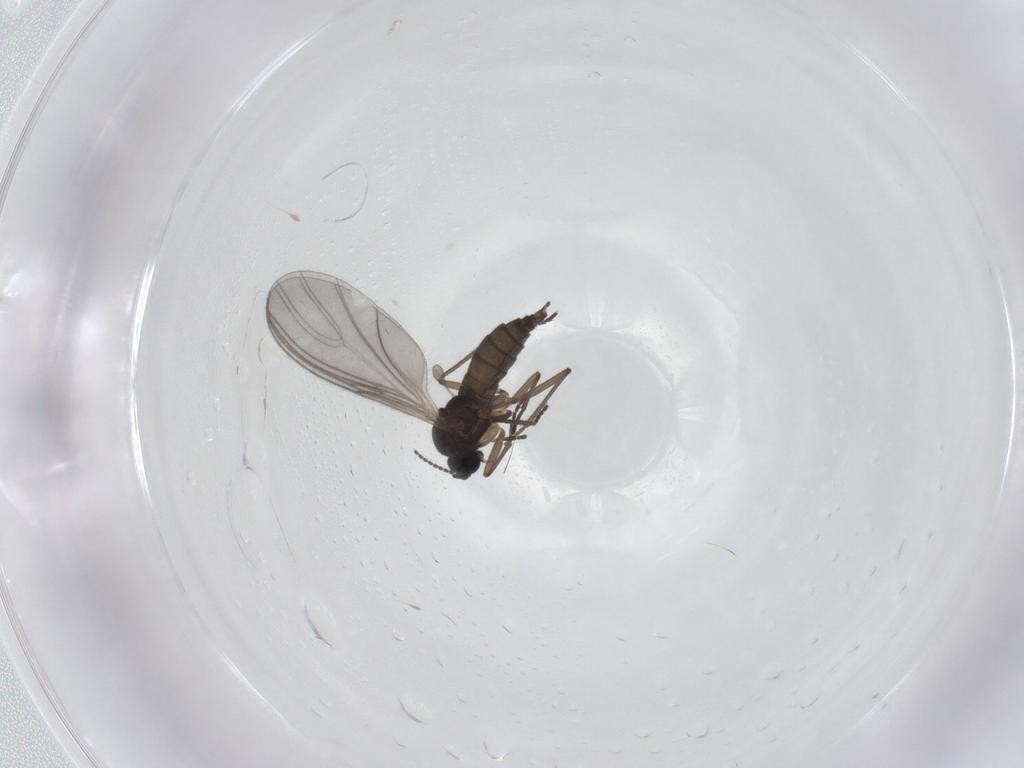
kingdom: Animalia
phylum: Arthropoda
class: Insecta
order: Diptera
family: Sciaridae
